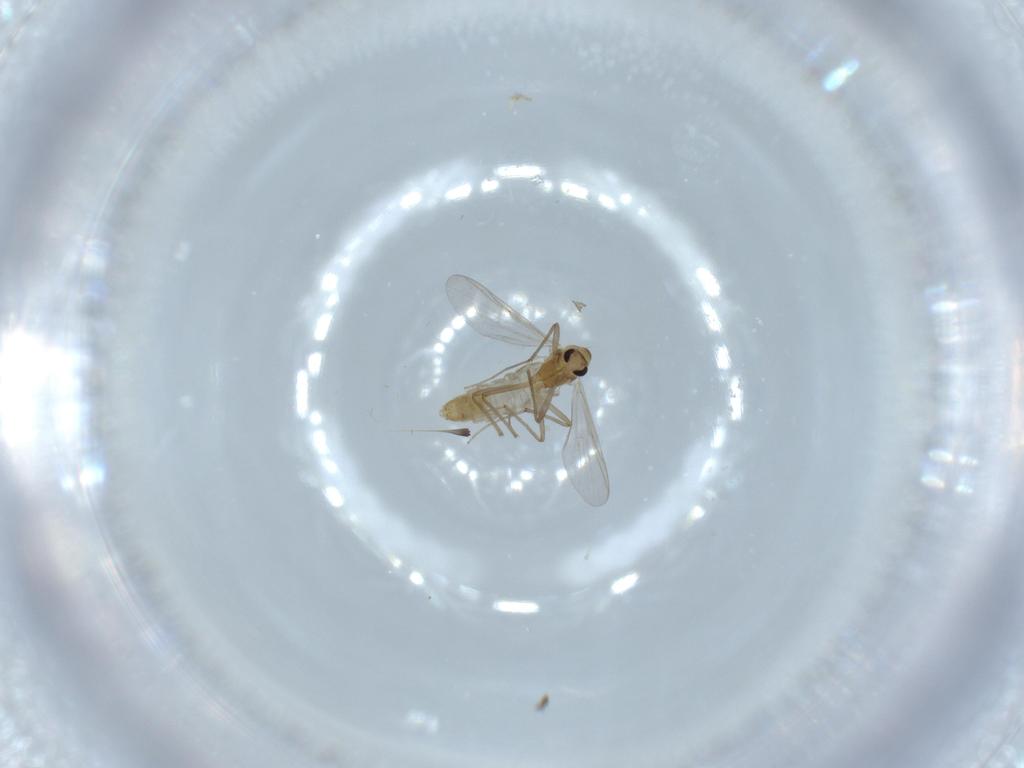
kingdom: Animalia
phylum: Arthropoda
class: Insecta
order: Diptera
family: Chironomidae
